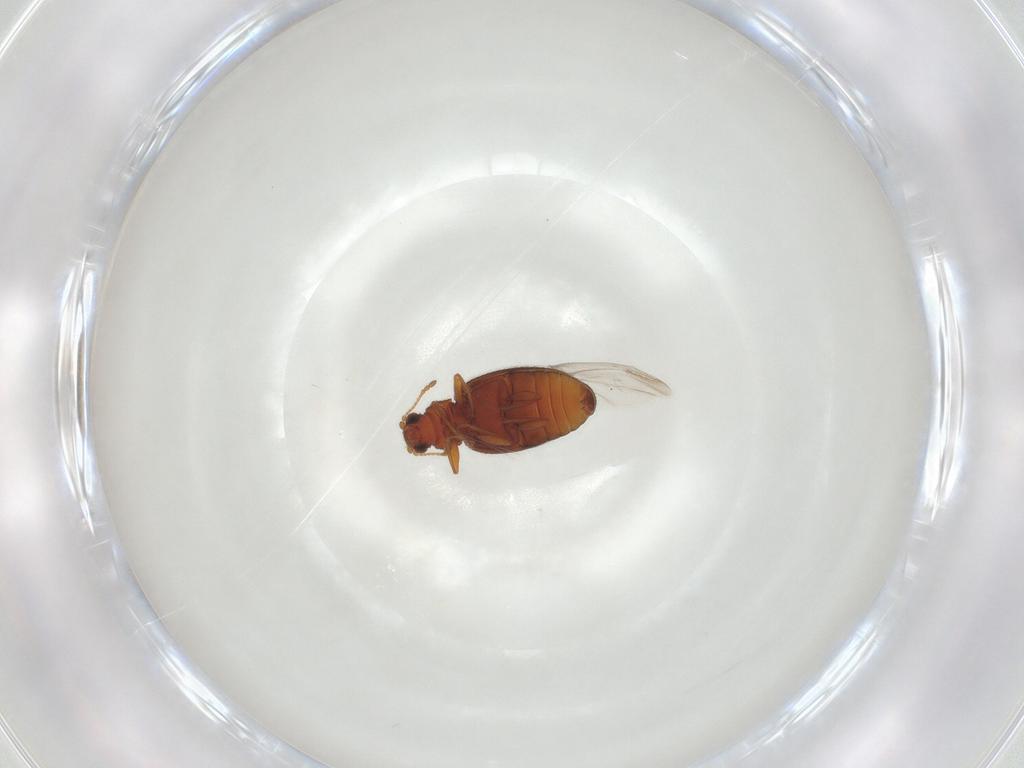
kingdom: Animalia
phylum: Arthropoda
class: Insecta
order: Coleoptera
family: Latridiidae
